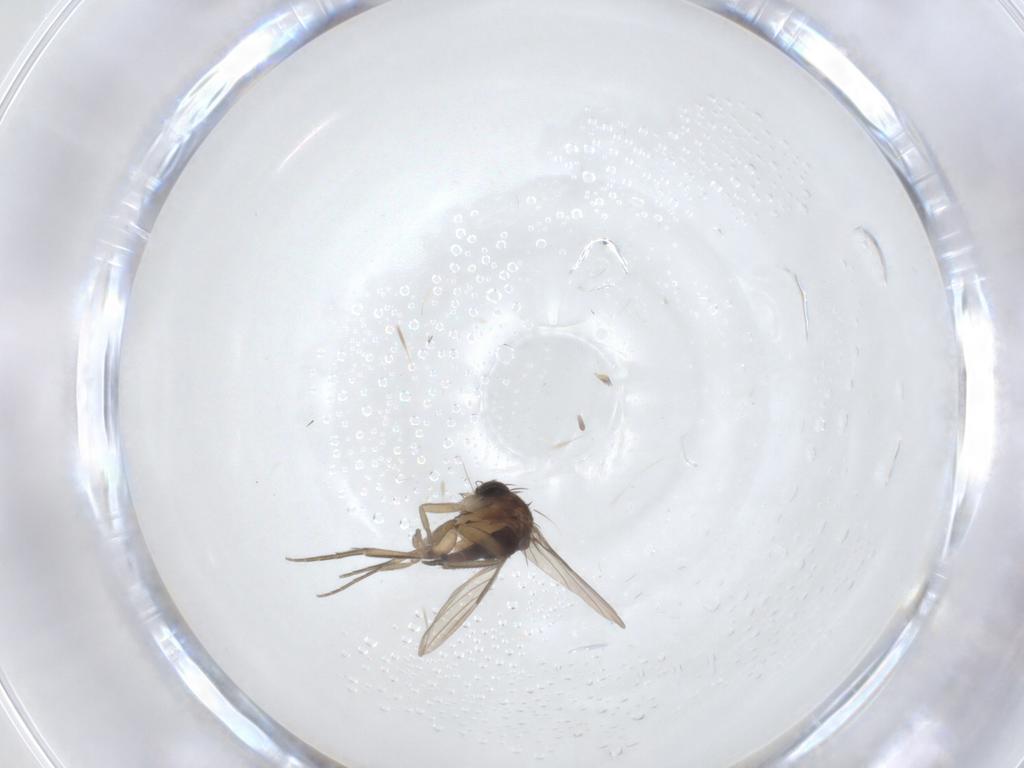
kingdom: Animalia
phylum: Arthropoda
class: Insecta
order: Diptera
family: Phoridae
